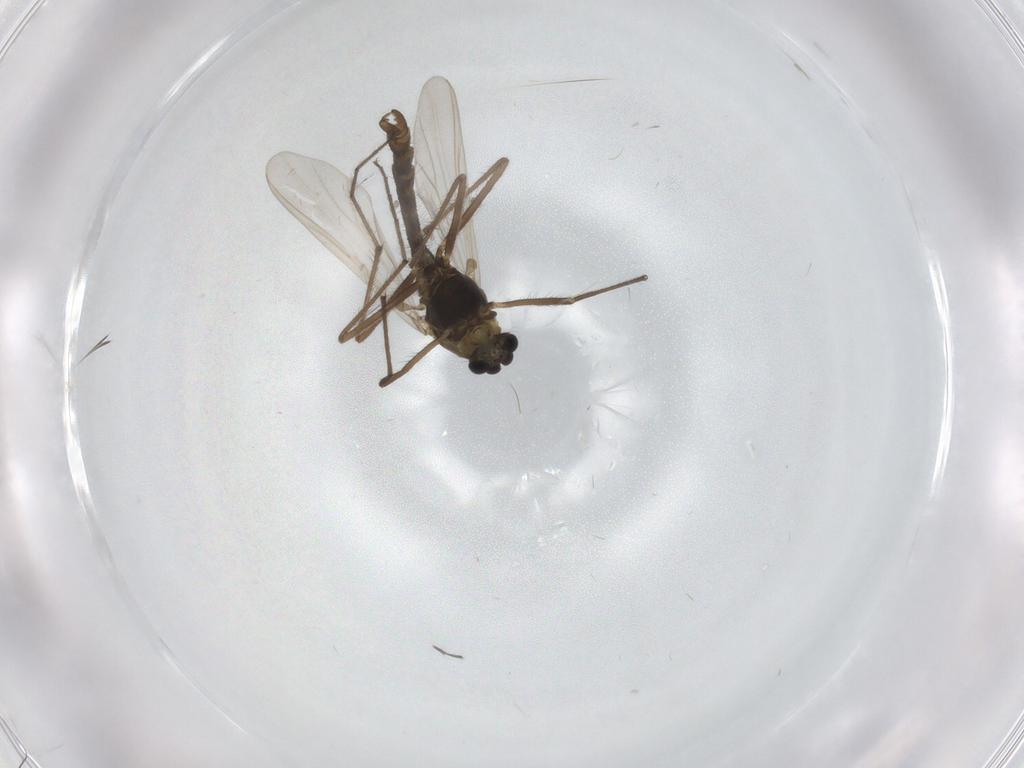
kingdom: Animalia
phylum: Arthropoda
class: Insecta
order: Diptera
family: Chironomidae
